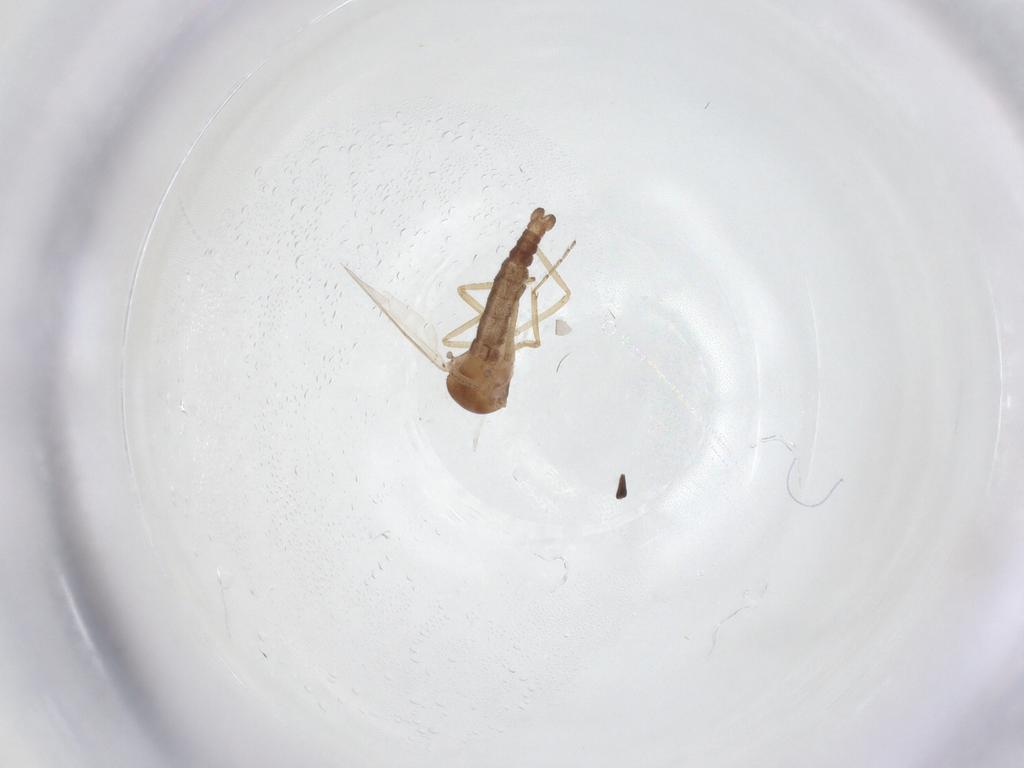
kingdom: Animalia
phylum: Arthropoda
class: Insecta
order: Diptera
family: Ceratopogonidae
